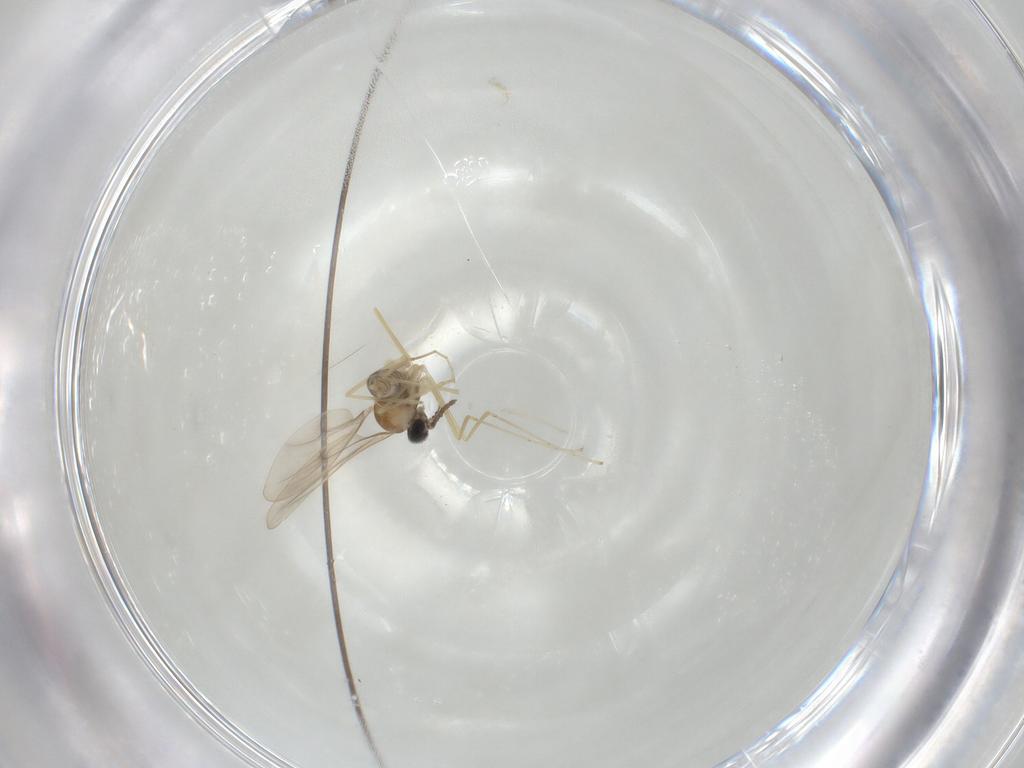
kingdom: Animalia
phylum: Arthropoda
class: Insecta
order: Diptera
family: Cecidomyiidae
